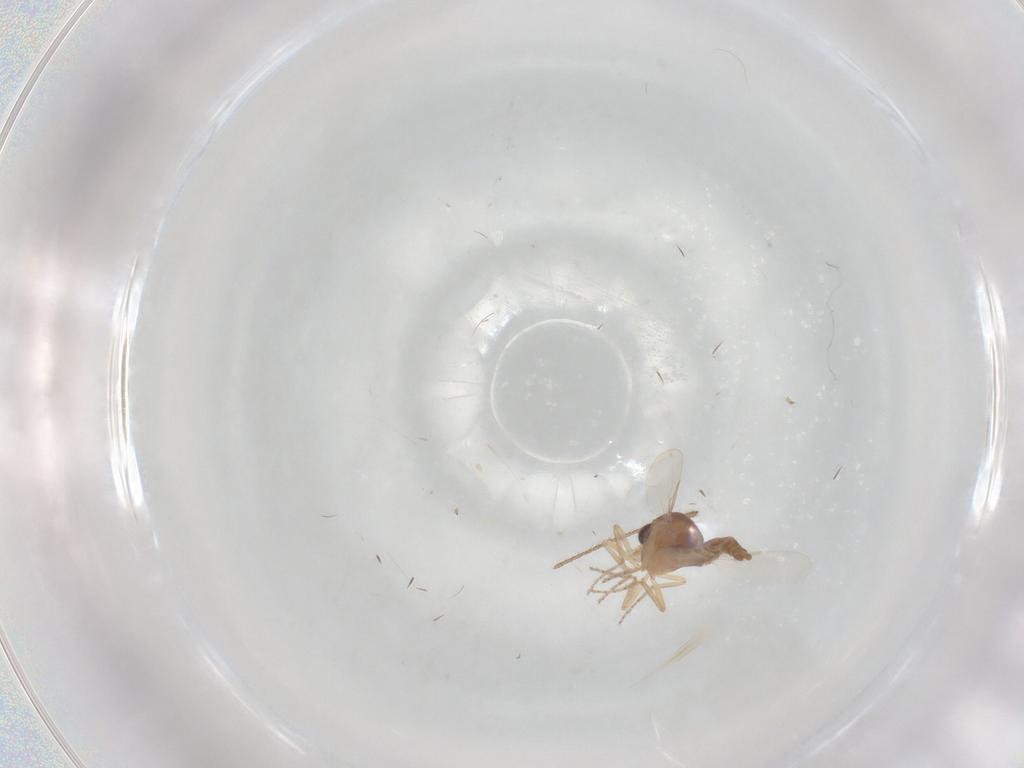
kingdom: Animalia
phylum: Arthropoda
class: Insecta
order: Diptera
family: Ceratopogonidae
